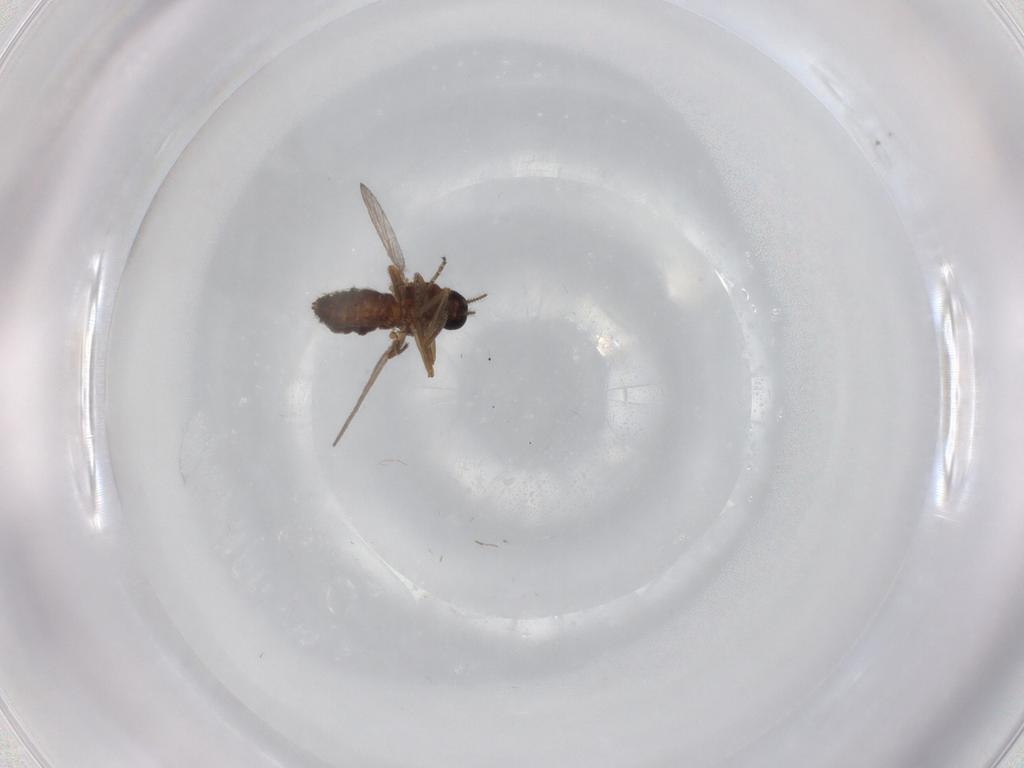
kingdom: Animalia
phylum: Arthropoda
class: Insecta
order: Diptera
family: Ceratopogonidae
